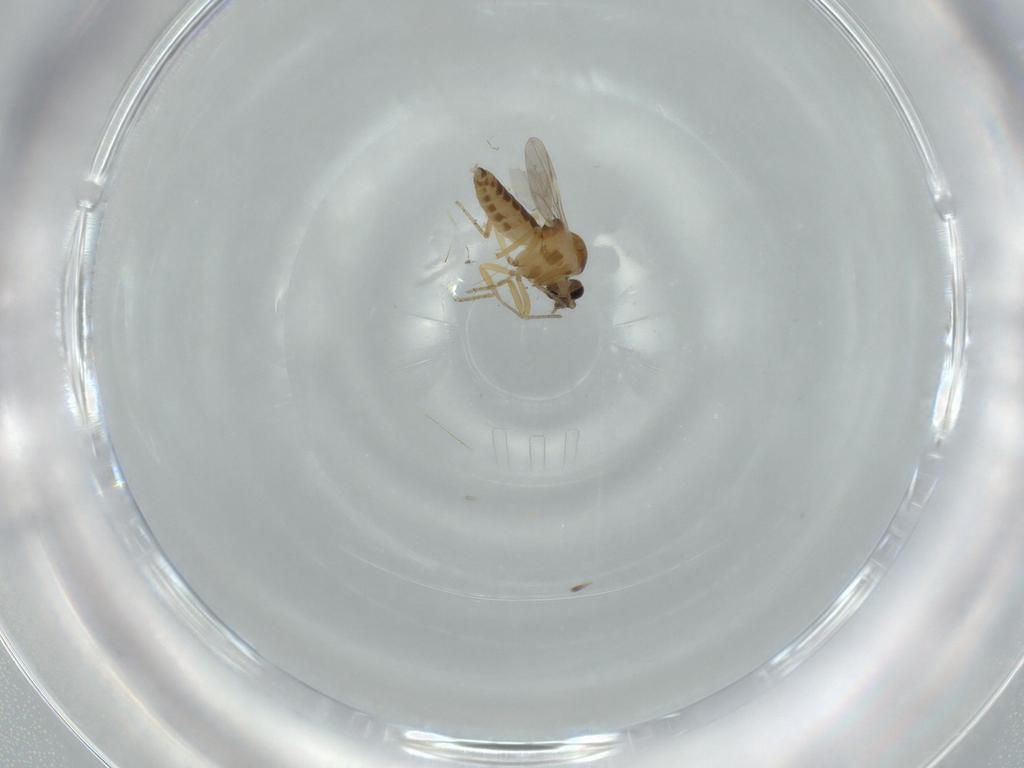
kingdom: Animalia
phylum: Arthropoda
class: Insecta
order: Diptera
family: Ceratopogonidae
